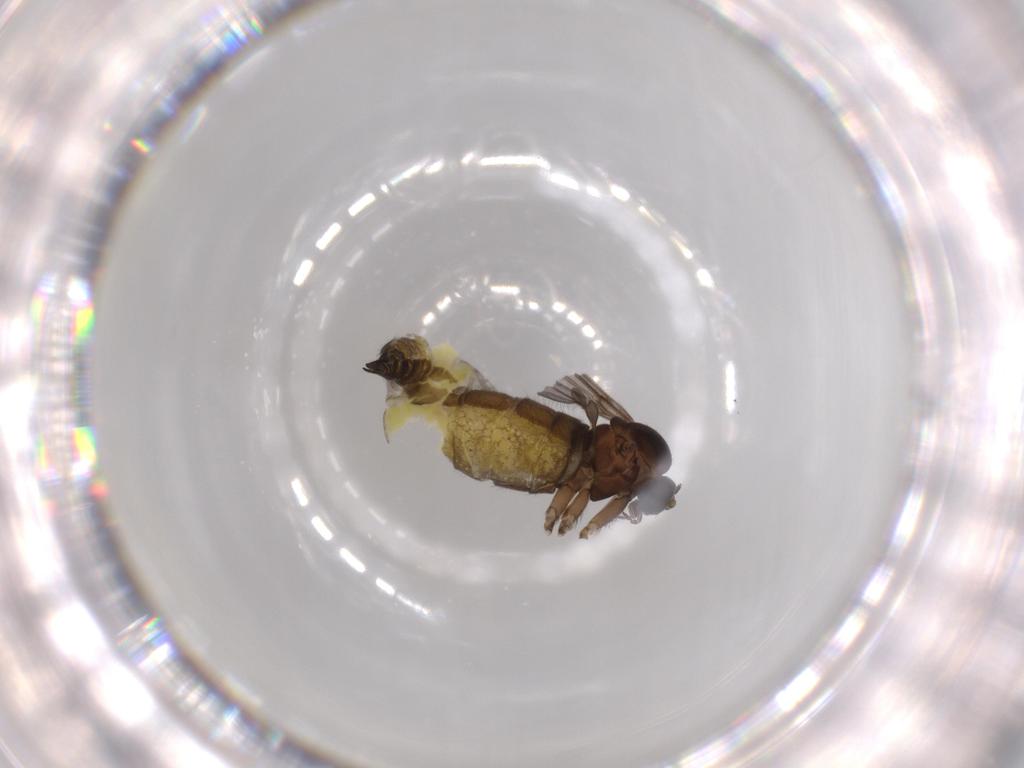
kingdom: Animalia
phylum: Arthropoda
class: Insecta
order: Diptera
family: Sciaridae
